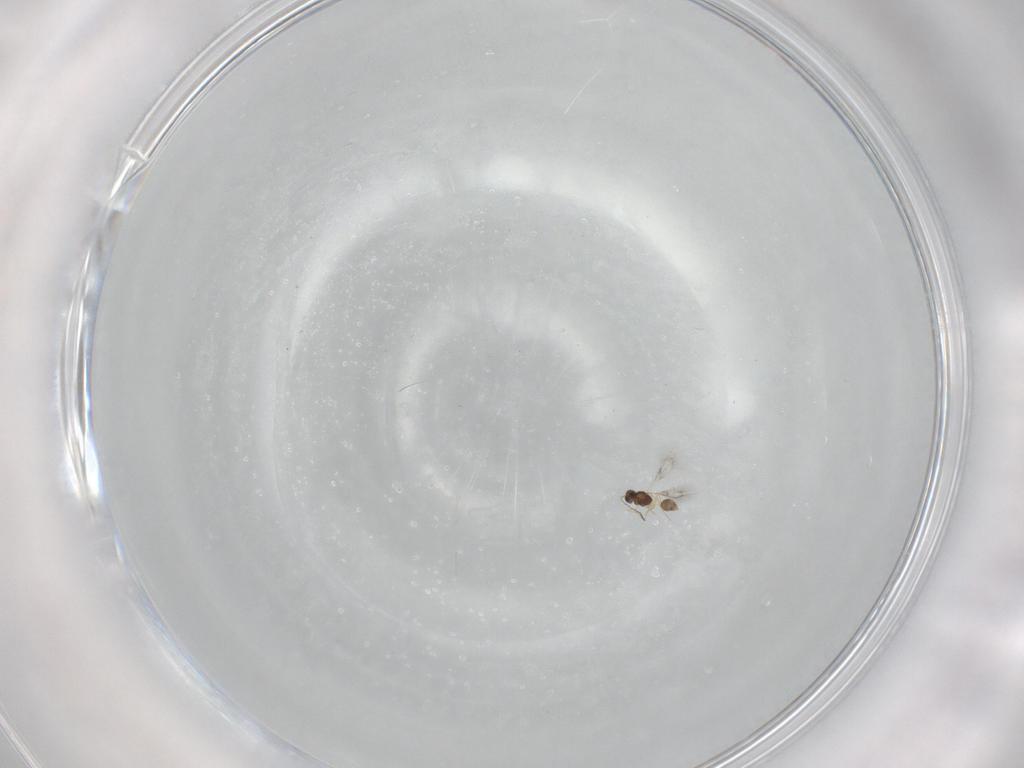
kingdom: Animalia
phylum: Arthropoda
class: Insecta
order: Hymenoptera
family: Mymarommatidae
